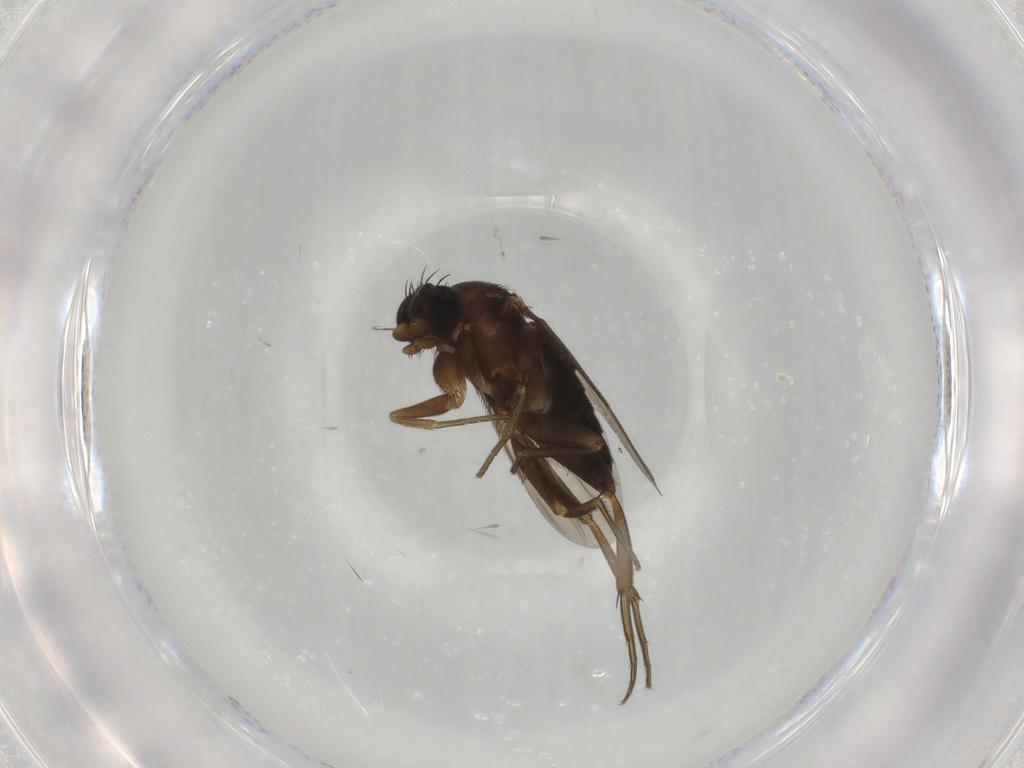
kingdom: Animalia
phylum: Arthropoda
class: Insecta
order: Diptera
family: Phoridae
